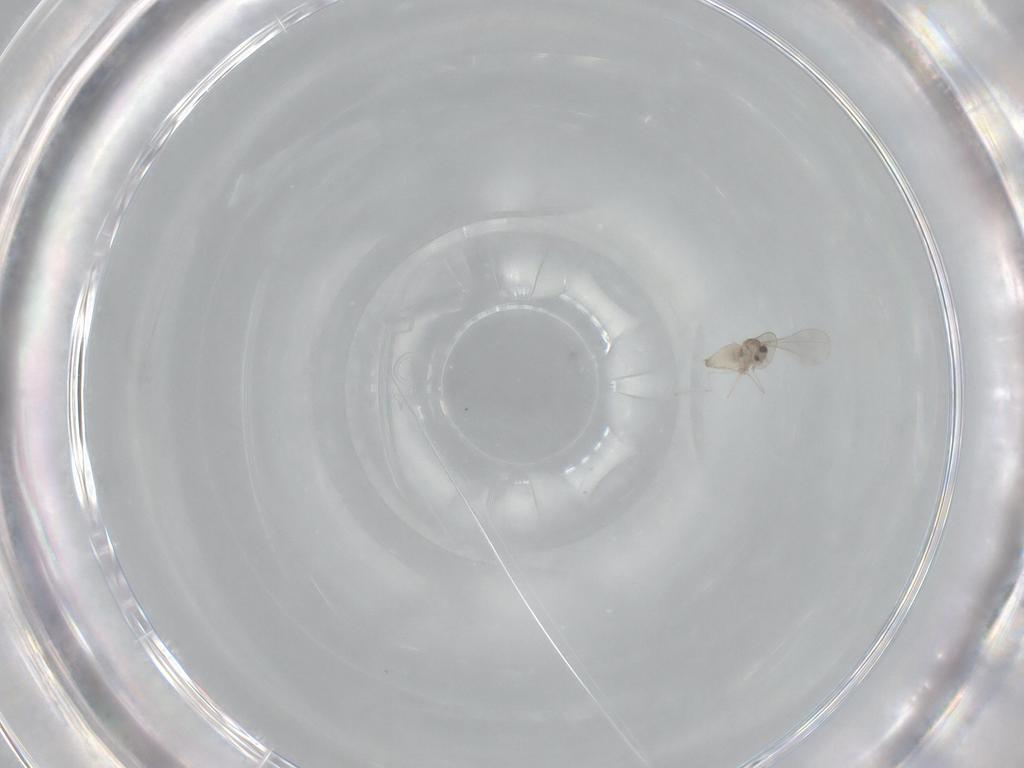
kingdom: Animalia
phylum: Arthropoda
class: Insecta
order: Diptera
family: Cecidomyiidae
